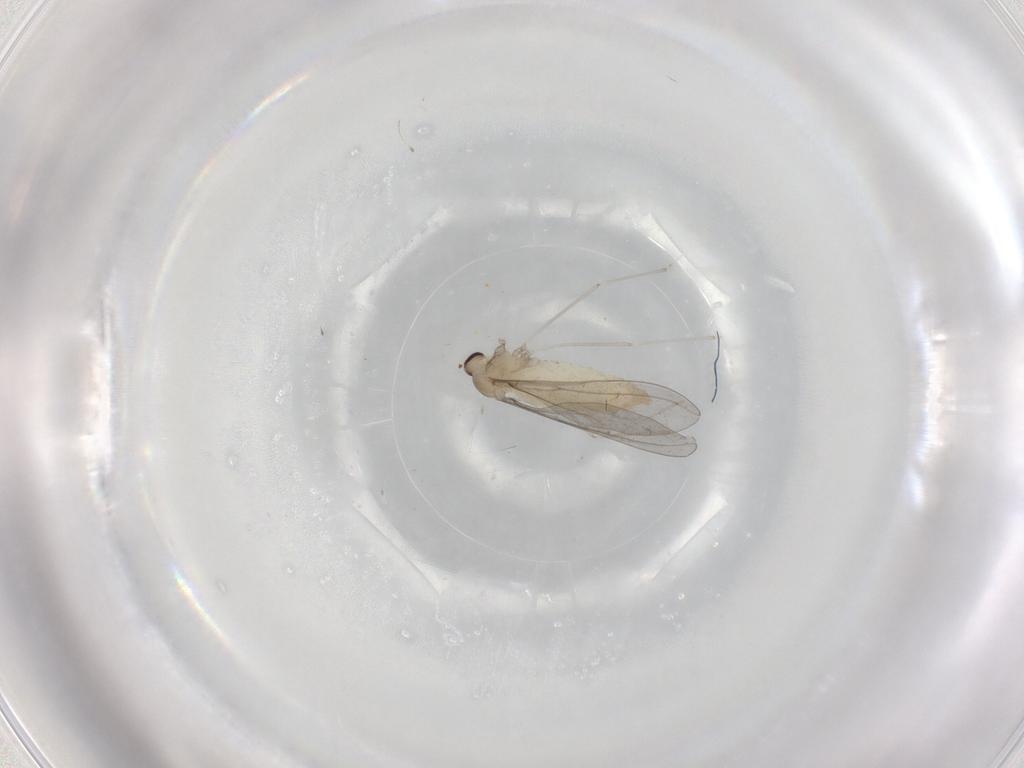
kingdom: Animalia
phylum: Arthropoda
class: Insecta
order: Diptera
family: Cecidomyiidae
